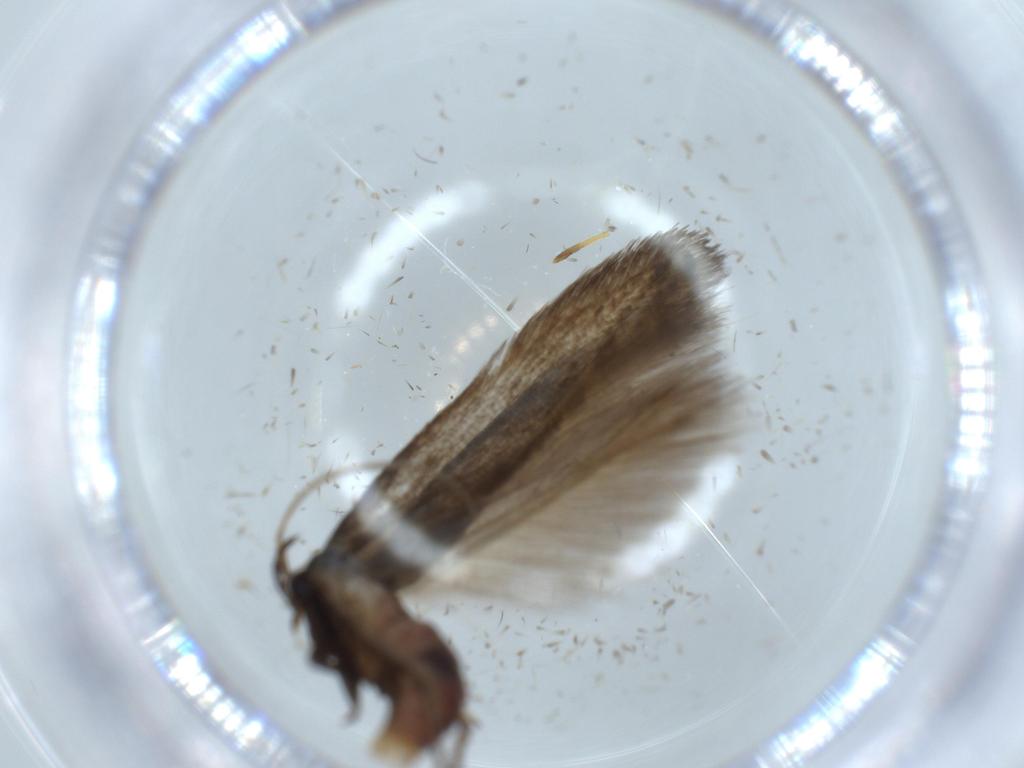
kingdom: Animalia
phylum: Arthropoda
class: Insecta
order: Lepidoptera
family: Cosmopterigidae
